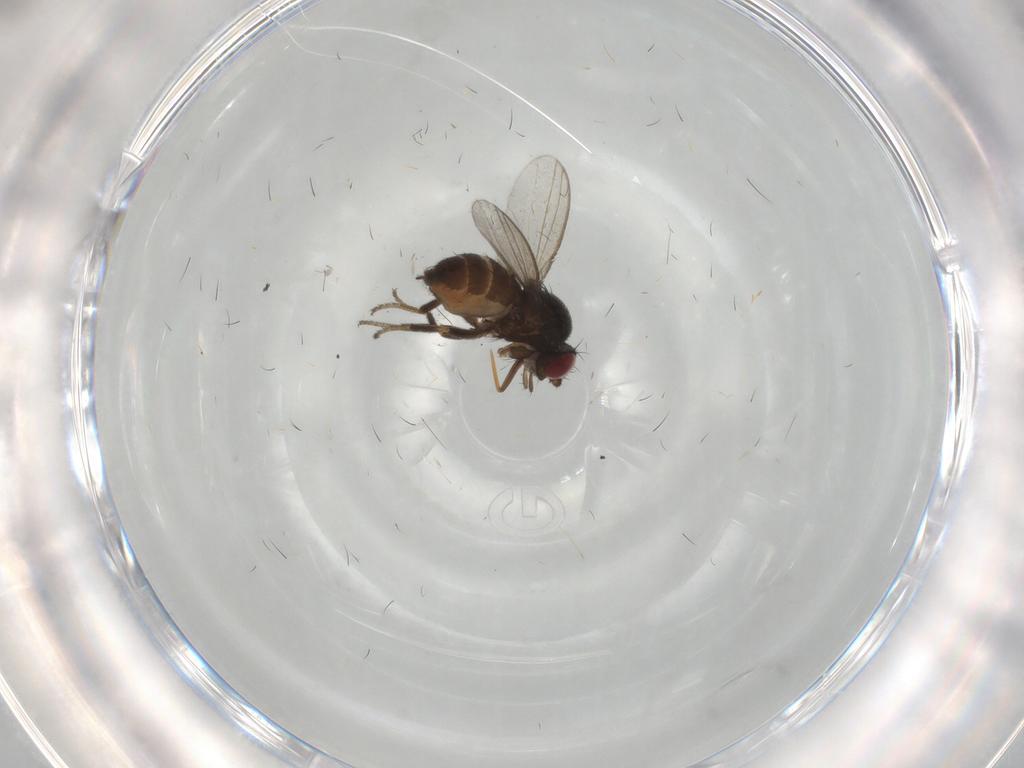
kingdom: Animalia
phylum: Arthropoda
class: Insecta
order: Diptera
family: Milichiidae
